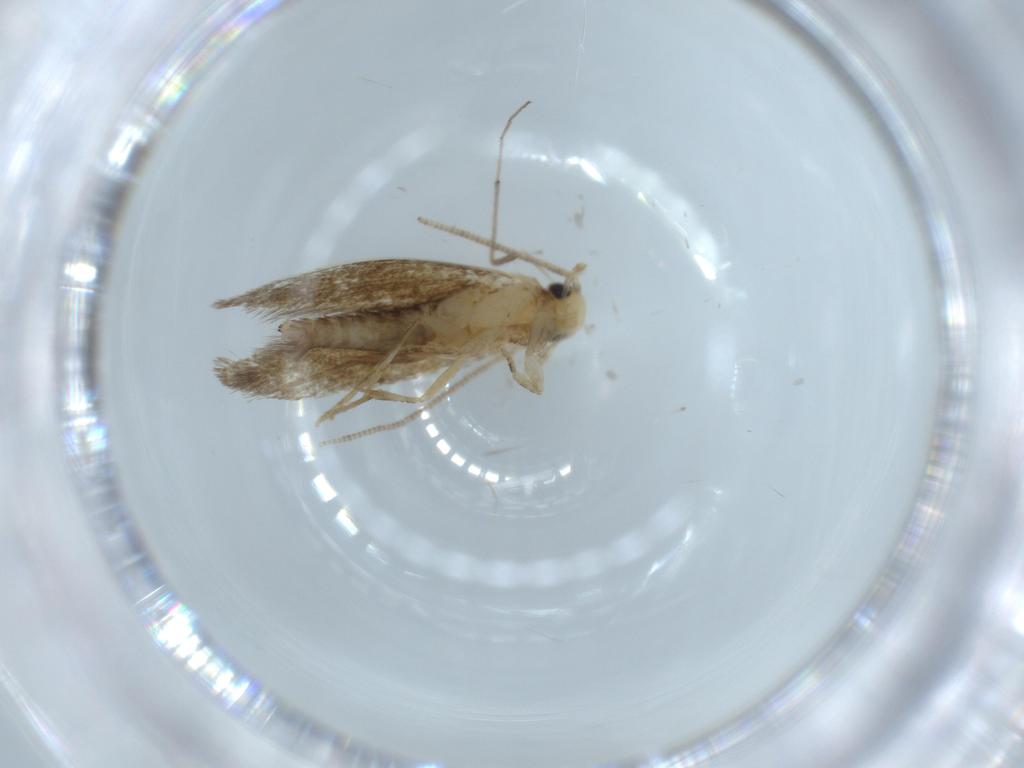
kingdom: Animalia
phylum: Arthropoda
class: Insecta
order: Lepidoptera
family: Tineidae
